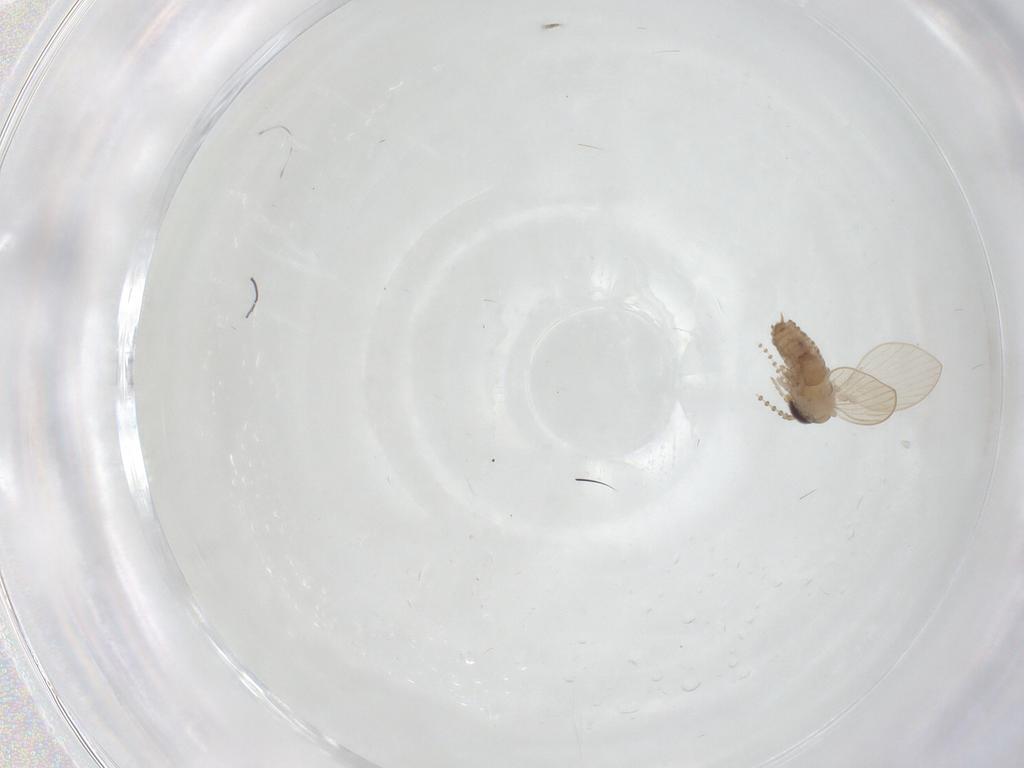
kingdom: Animalia
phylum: Arthropoda
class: Insecta
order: Diptera
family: Psychodidae
